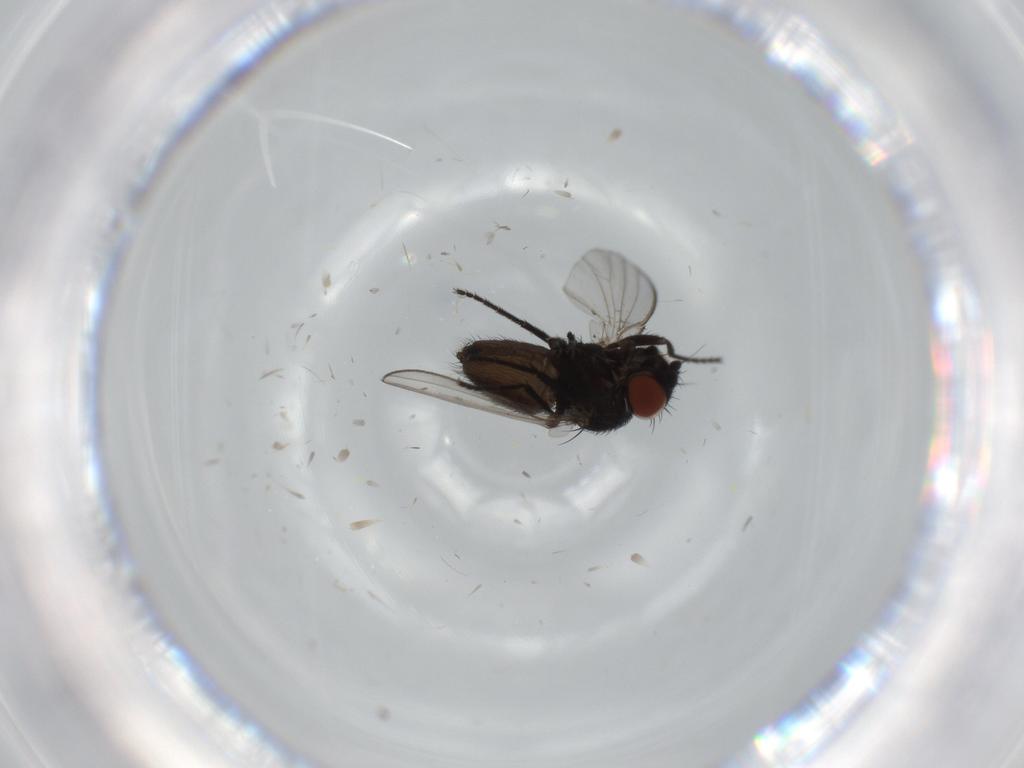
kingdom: Animalia
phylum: Arthropoda
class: Insecta
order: Diptera
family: Milichiidae
